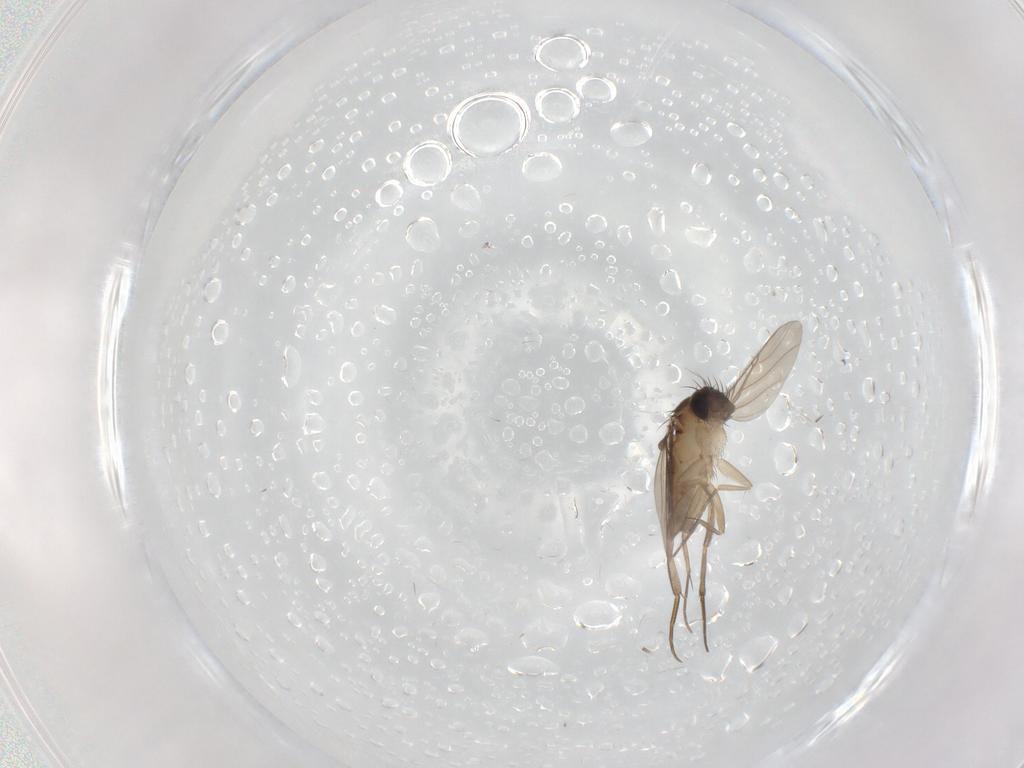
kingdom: Animalia
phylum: Arthropoda
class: Insecta
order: Diptera
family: Phoridae
